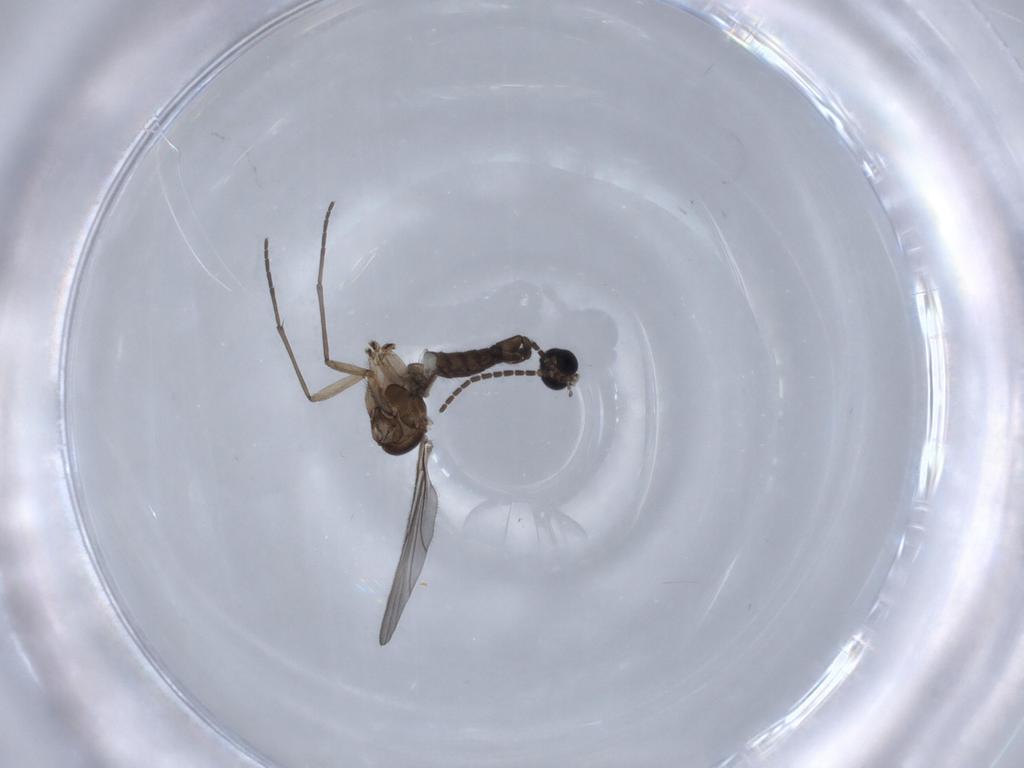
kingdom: Animalia
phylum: Arthropoda
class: Insecta
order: Diptera
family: Sciaridae
